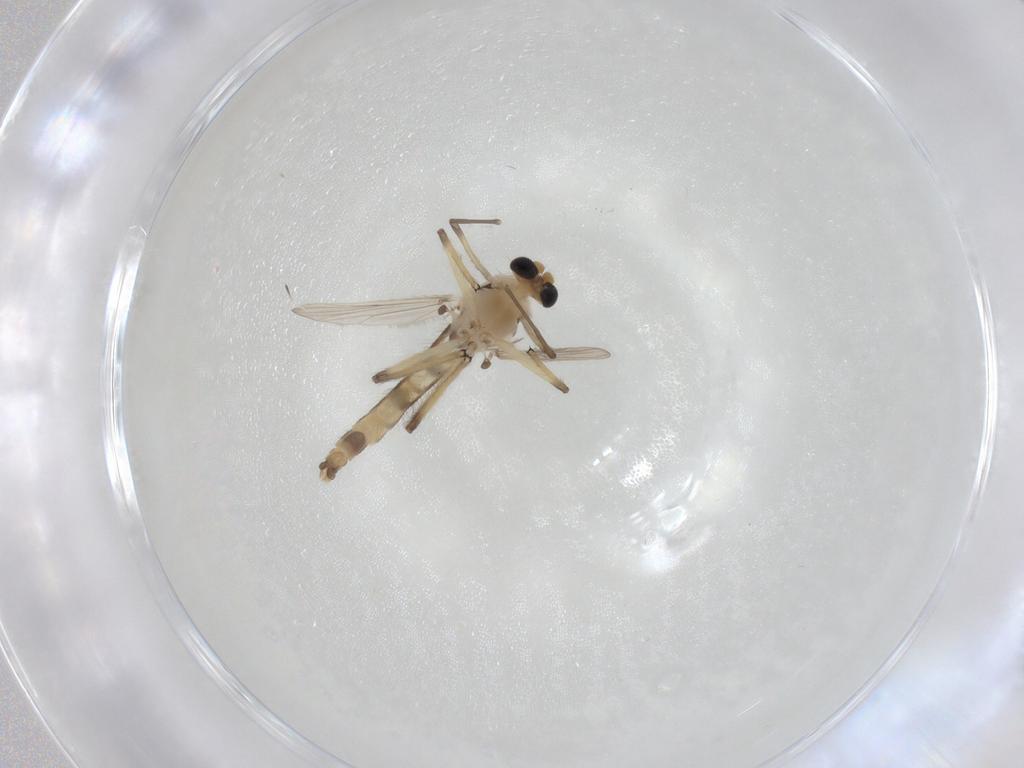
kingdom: Animalia
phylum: Arthropoda
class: Insecta
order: Diptera
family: Chironomidae
